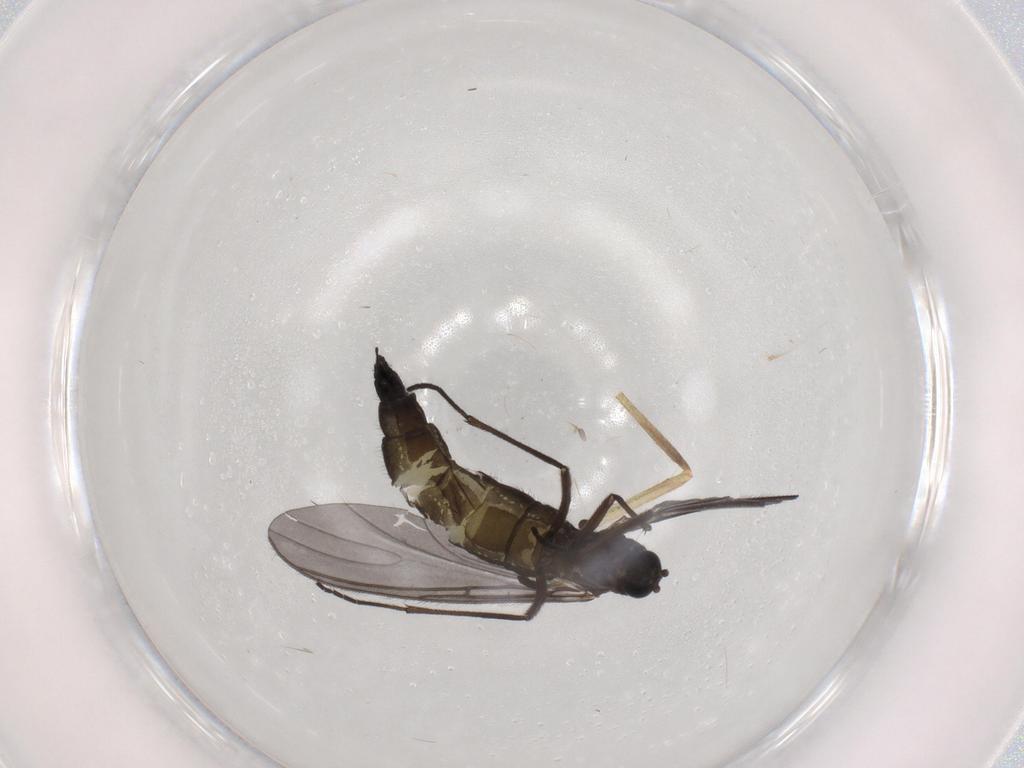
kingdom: Animalia
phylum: Arthropoda
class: Insecta
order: Diptera
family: Sciaridae
